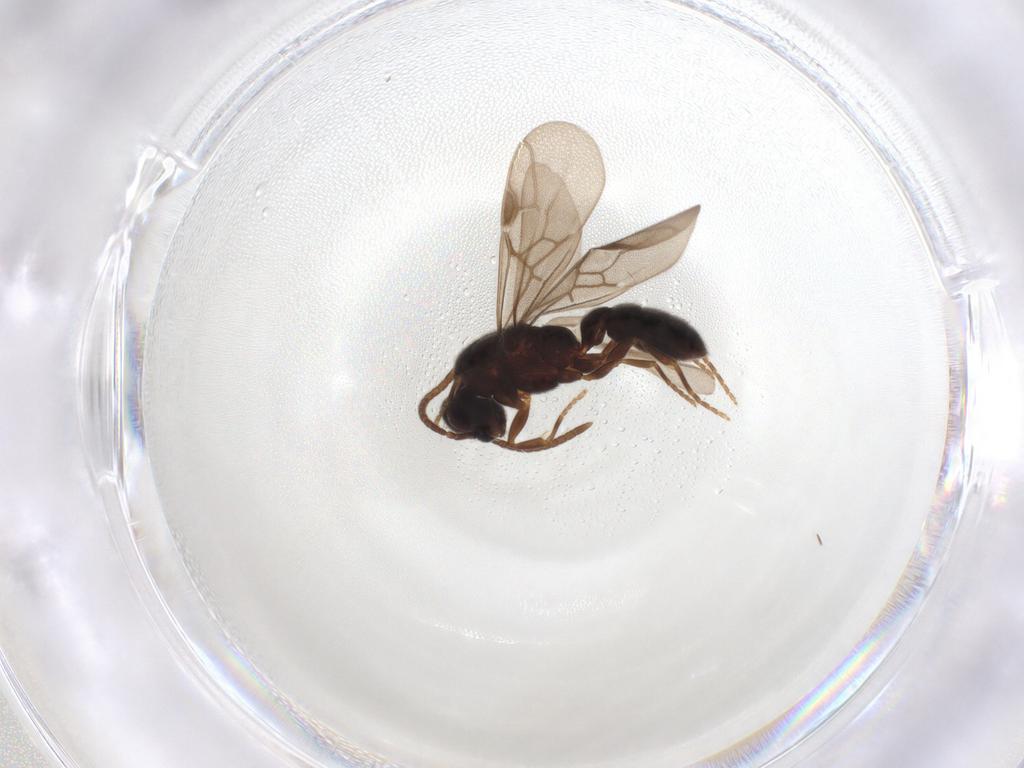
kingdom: Animalia
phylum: Arthropoda
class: Insecta
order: Hymenoptera
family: Formicidae
